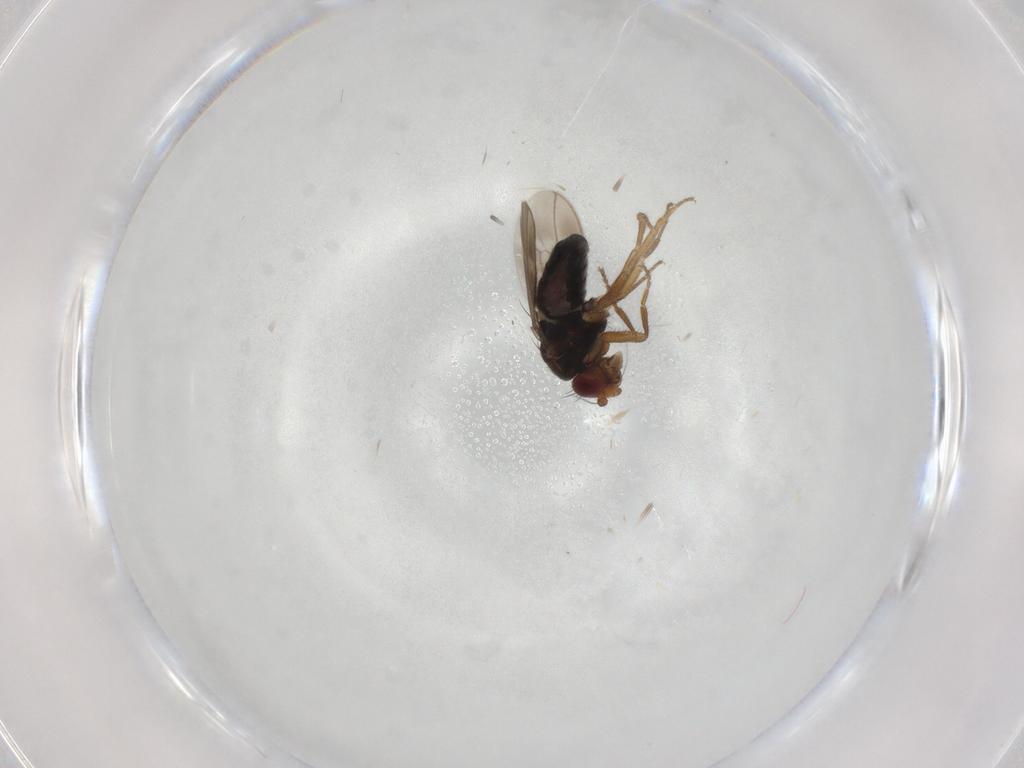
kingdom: Animalia
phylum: Arthropoda
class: Insecta
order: Diptera
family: Sphaeroceridae
